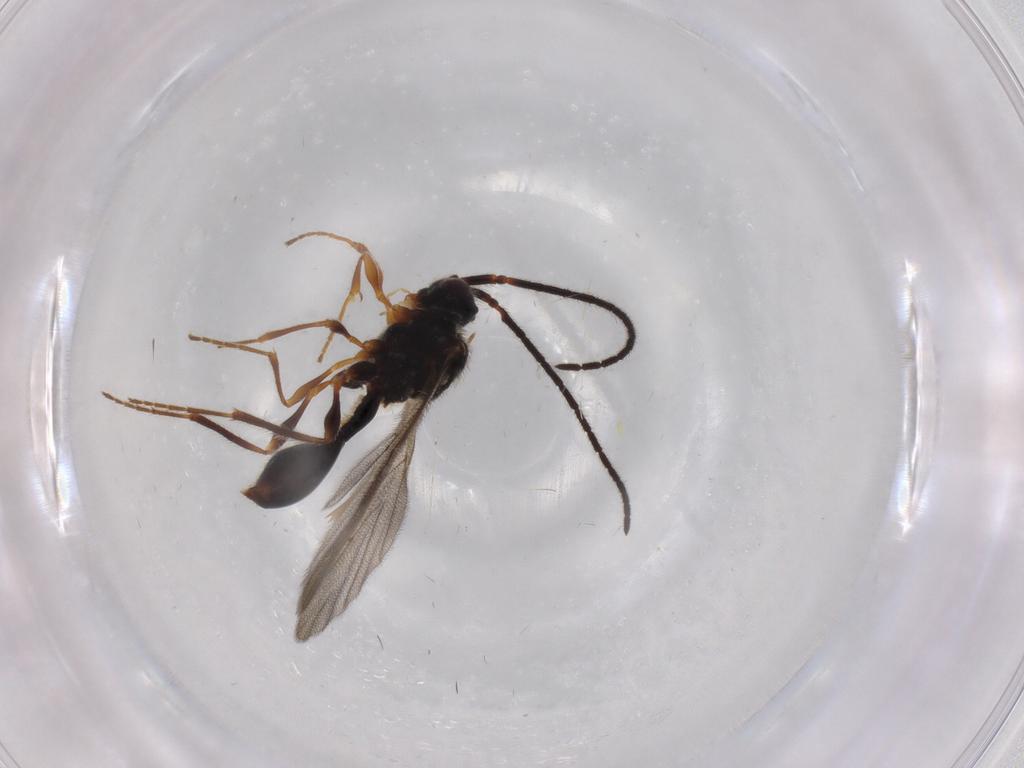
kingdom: Animalia
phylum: Arthropoda
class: Insecta
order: Hymenoptera
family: Diapriidae
